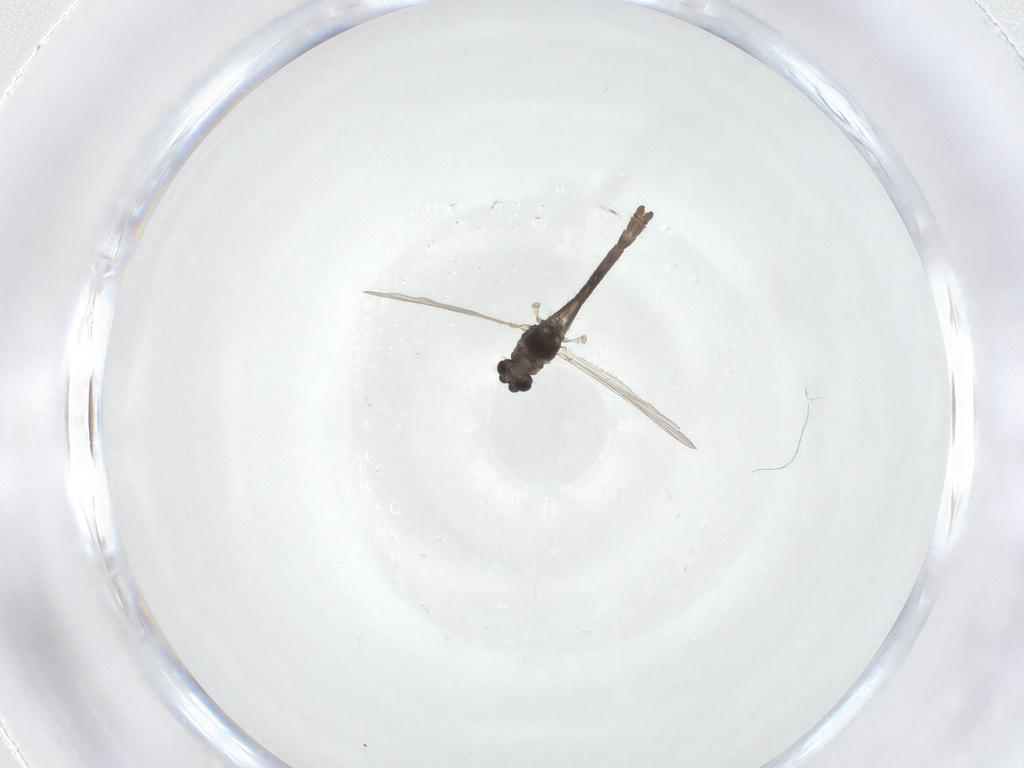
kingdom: Animalia
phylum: Arthropoda
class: Insecta
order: Diptera
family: Chironomidae
